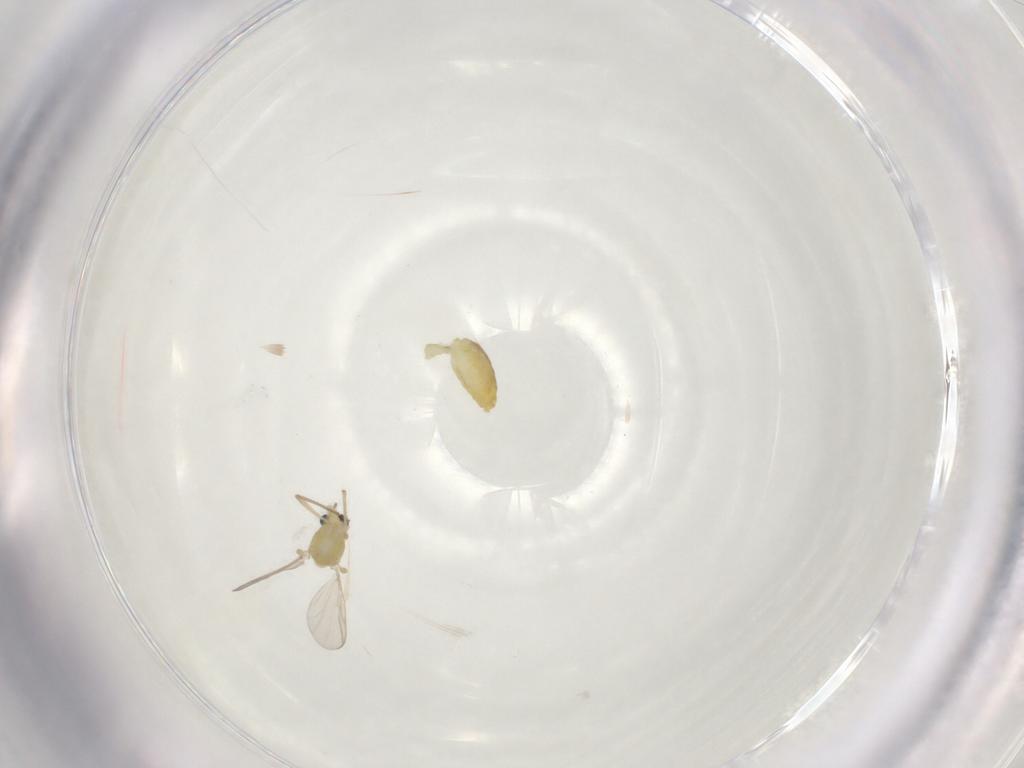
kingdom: Animalia
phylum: Arthropoda
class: Insecta
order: Diptera
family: Chironomidae
